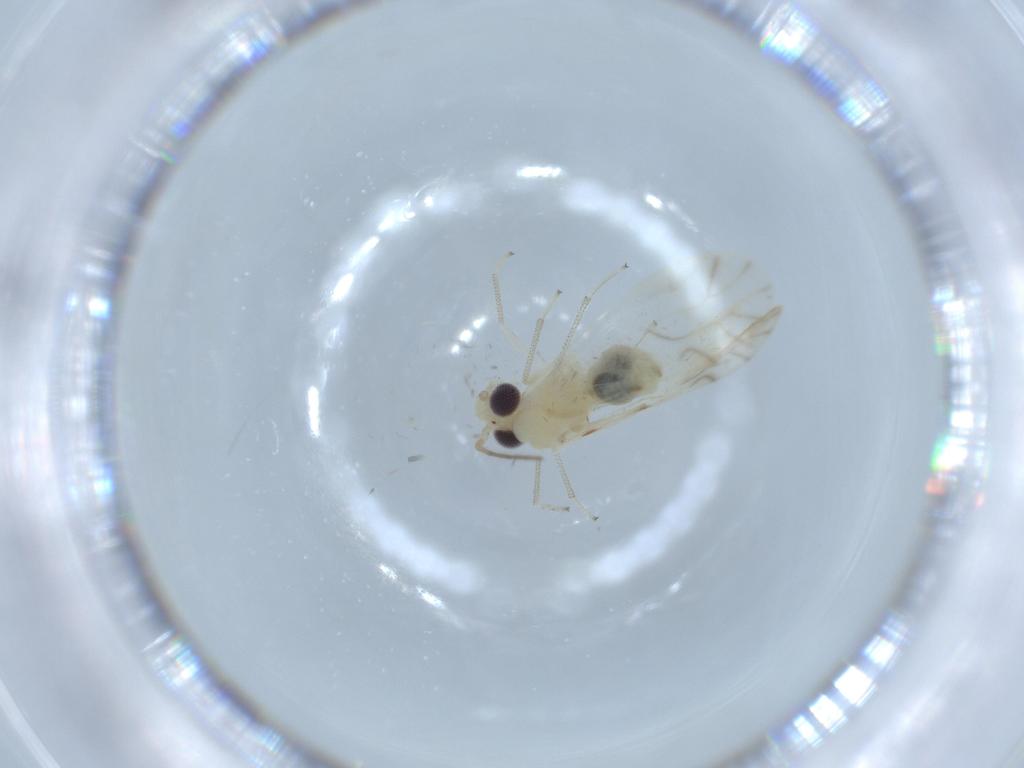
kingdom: Animalia
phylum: Arthropoda
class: Insecta
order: Psocodea
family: Caeciliusidae
